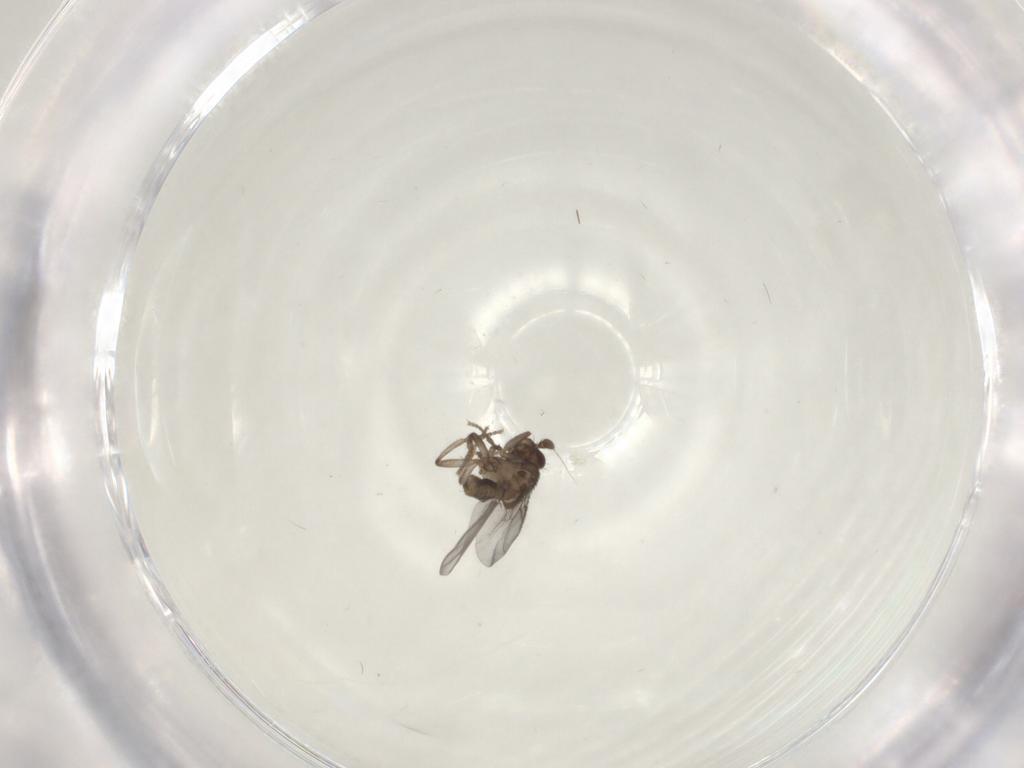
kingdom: Animalia
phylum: Arthropoda
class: Insecta
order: Diptera
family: Sphaeroceridae
